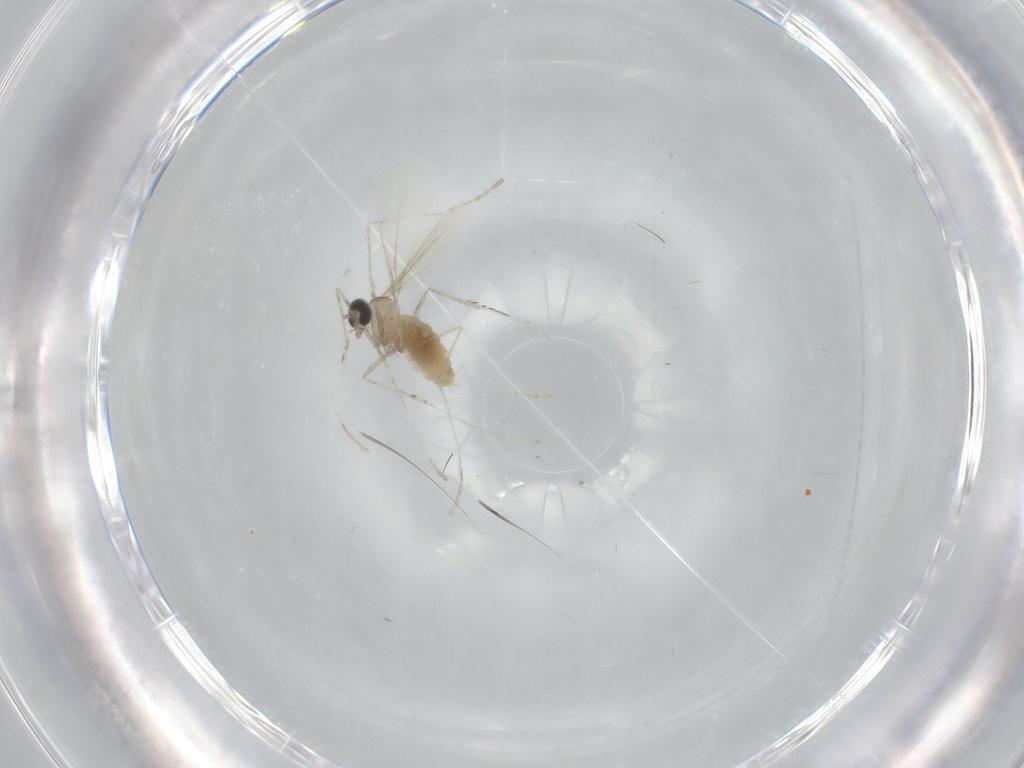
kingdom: Animalia
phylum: Arthropoda
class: Insecta
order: Diptera
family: Cecidomyiidae
